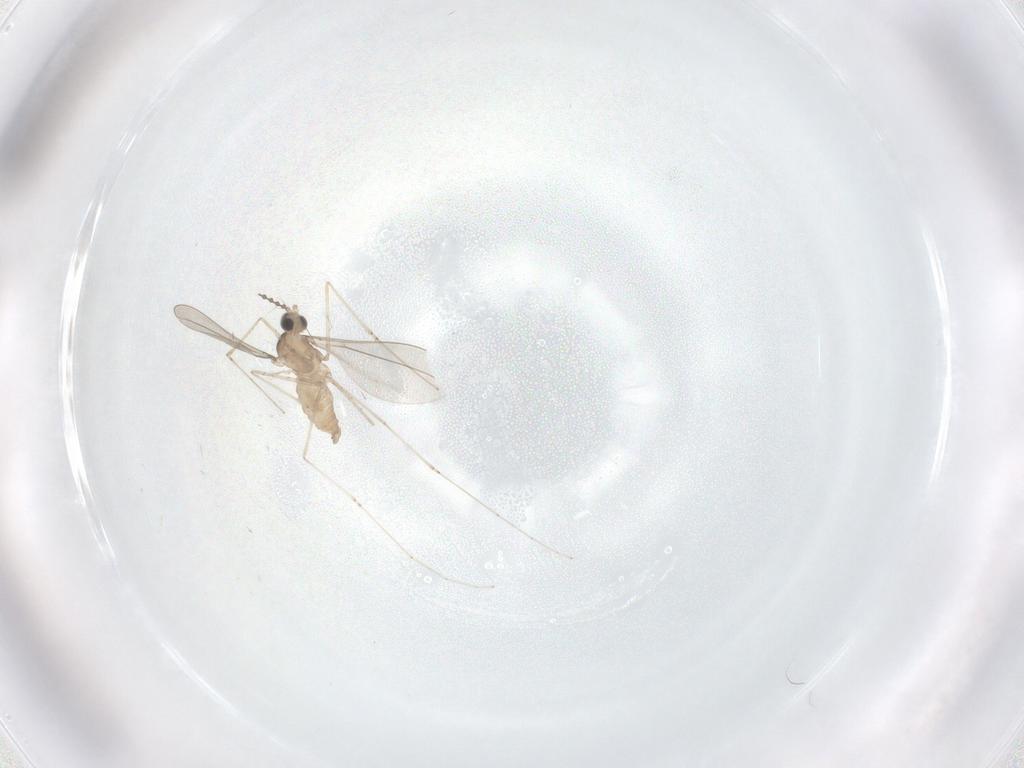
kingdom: Animalia
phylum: Arthropoda
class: Insecta
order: Diptera
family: Cecidomyiidae
